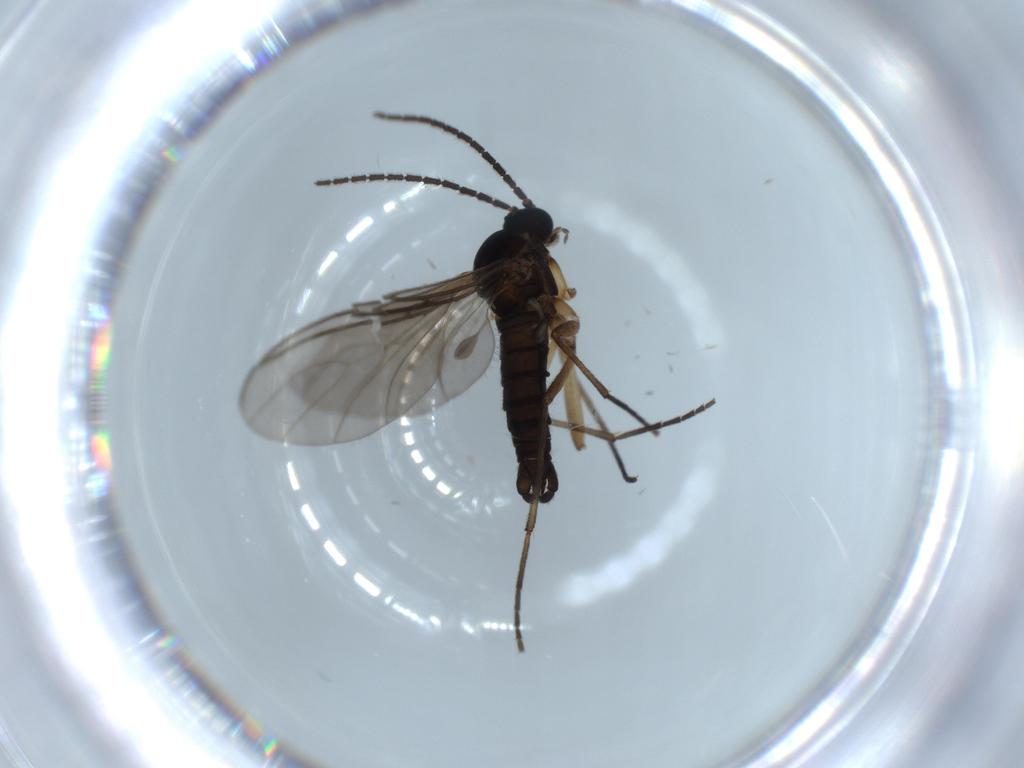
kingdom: Animalia
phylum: Arthropoda
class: Insecta
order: Diptera
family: Sciaridae
